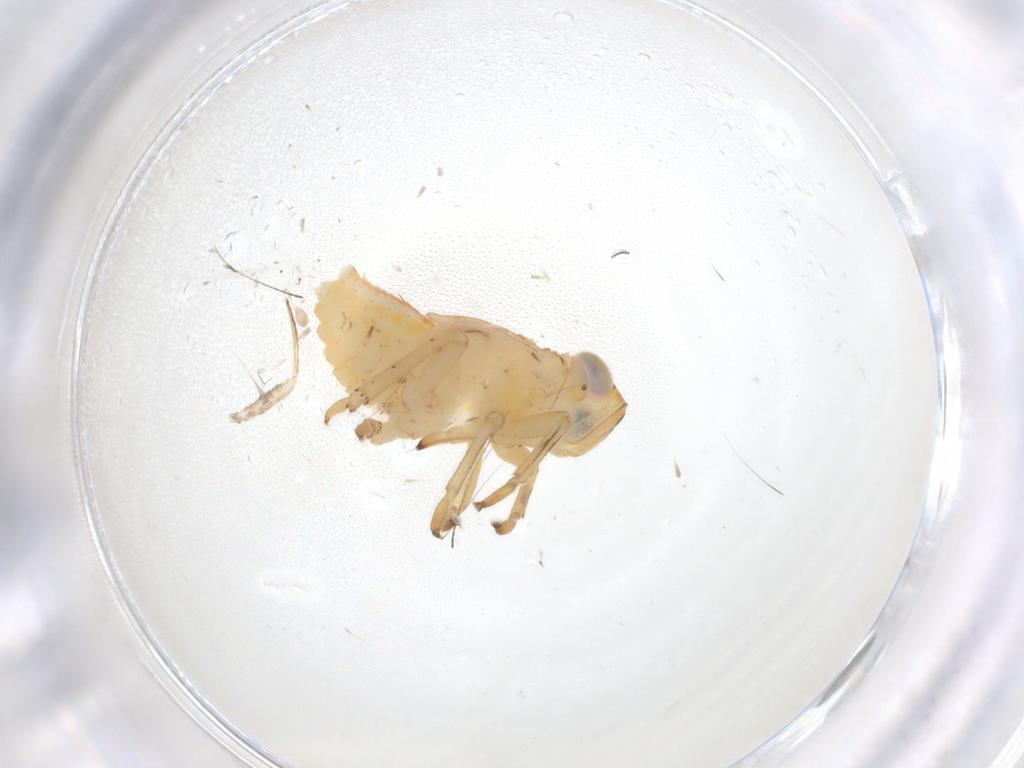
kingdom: Animalia
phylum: Arthropoda
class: Insecta
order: Hemiptera
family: Issidae
